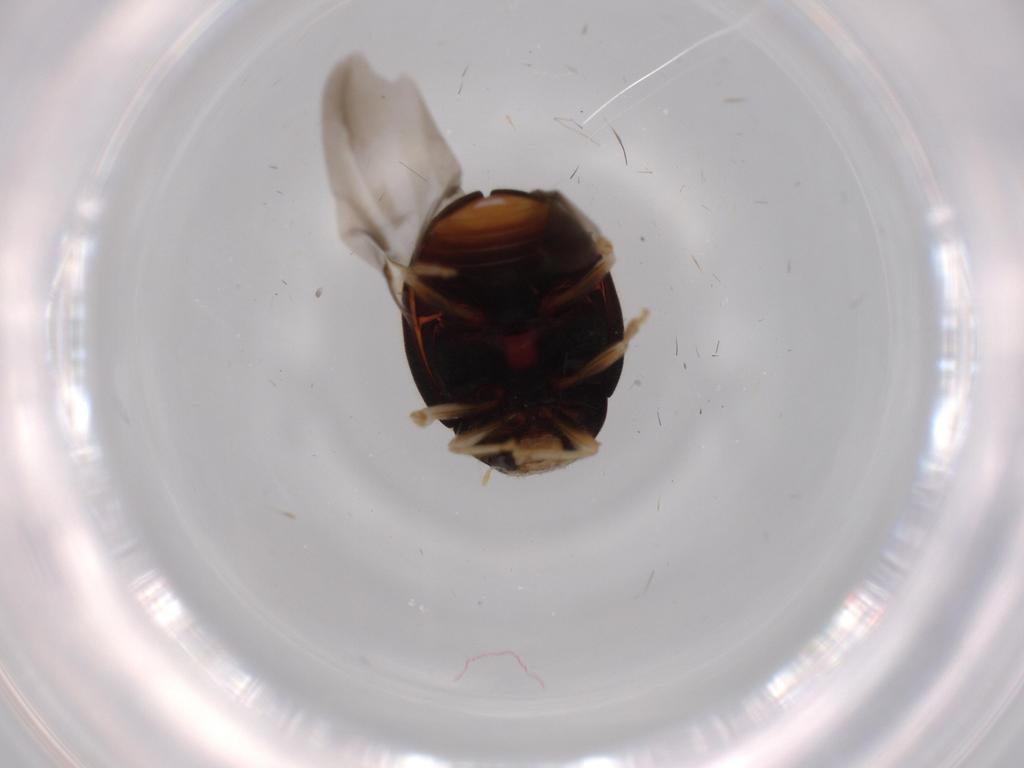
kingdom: Animalia
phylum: Arthropoda
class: Insecta
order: Coleoptera
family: Coccinellidae
